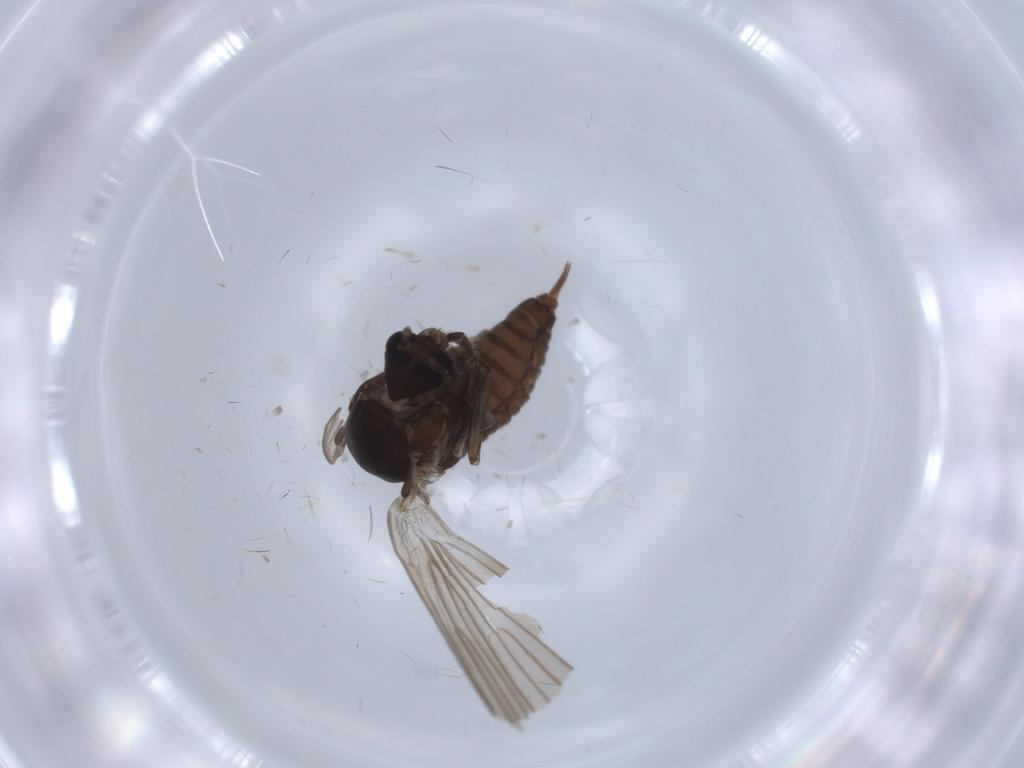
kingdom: Animalia
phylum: Arthropoda
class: Insecta
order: Diptera
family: Psychodidae
